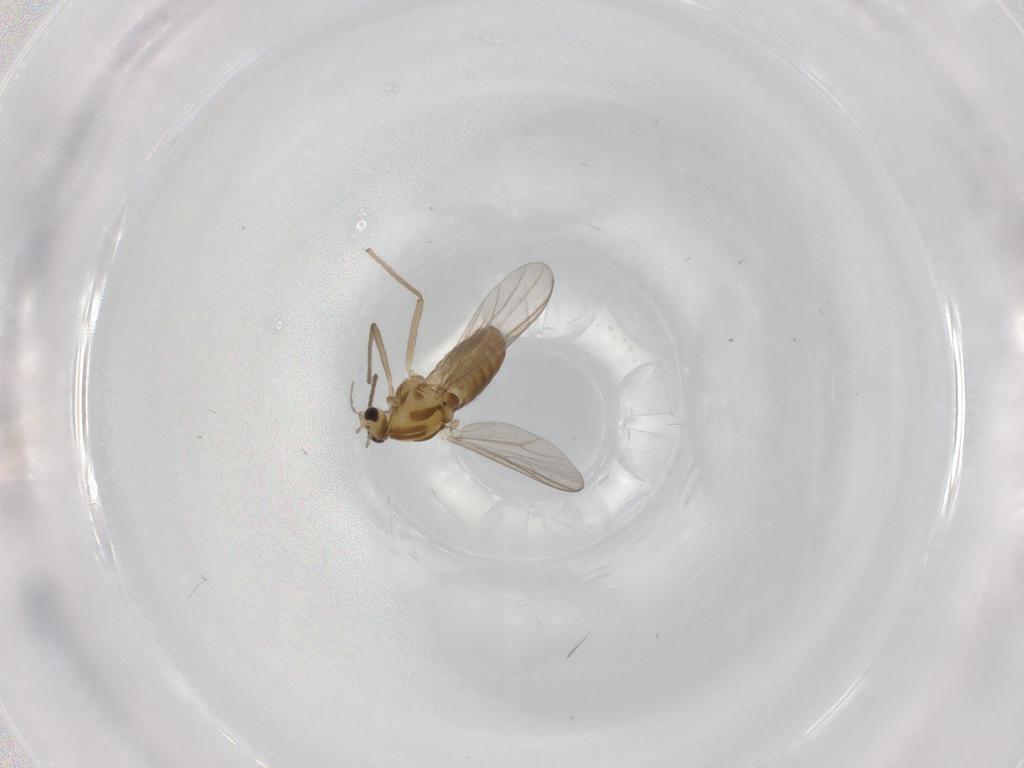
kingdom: Animalia
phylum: Arthropoda
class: Insecta
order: Diptera
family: Chironomidae
